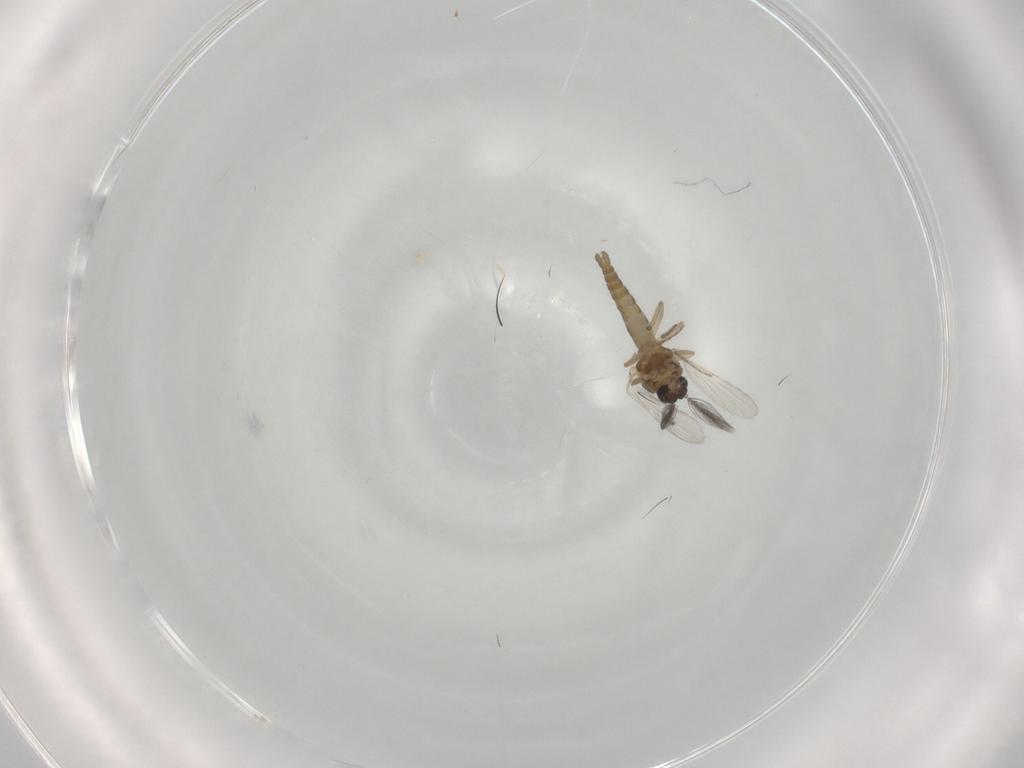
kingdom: Animalia
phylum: Arthropoda
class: Insecta
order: Diptera
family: Ceratopogonidae
